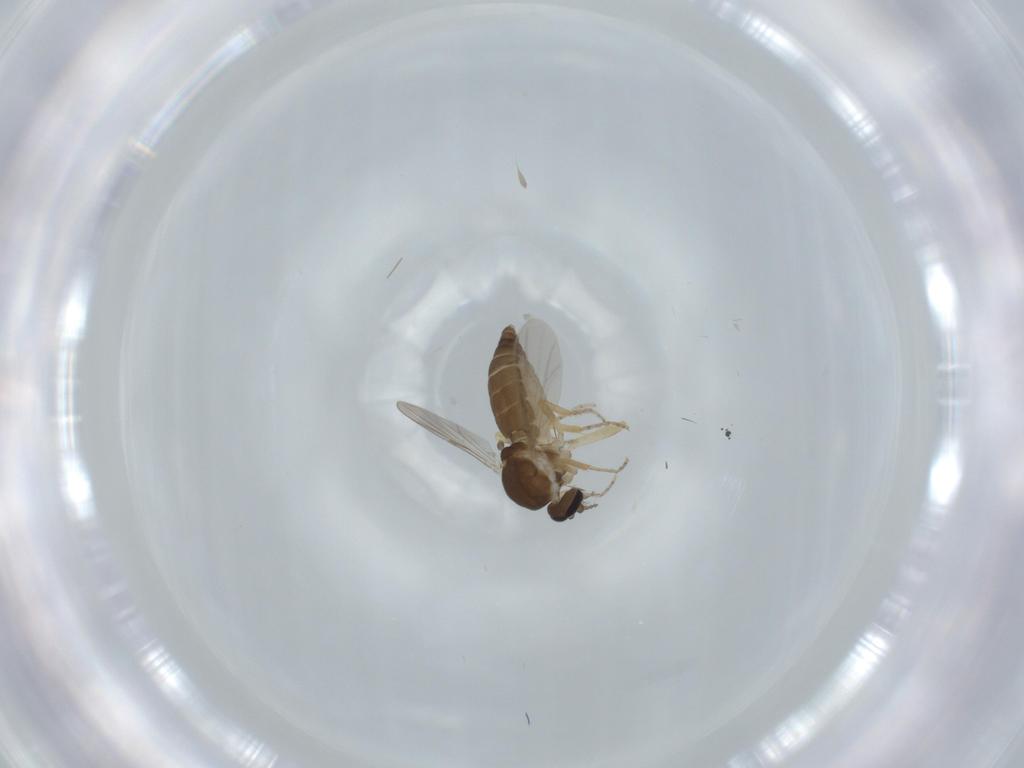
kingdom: Animalia
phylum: Arthropoda
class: Insecta
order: Diptera
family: Ceratopogonidae
